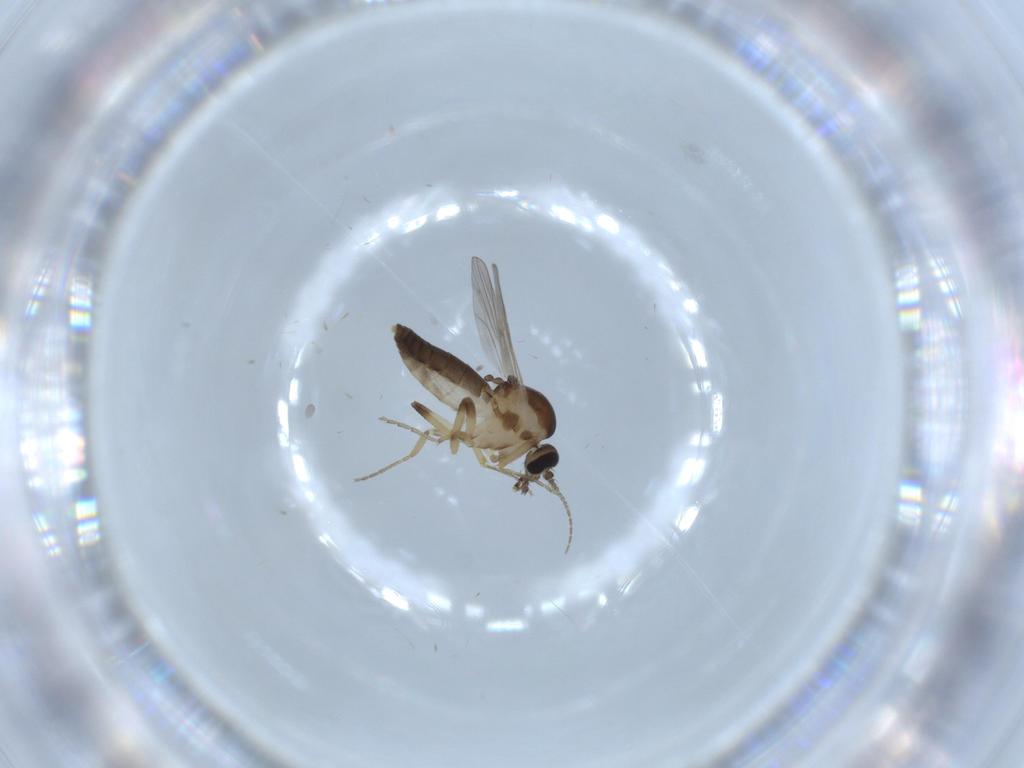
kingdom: Animalia
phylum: Arthropoda
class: Insecta
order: Diptera
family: Ceratopogonidae
